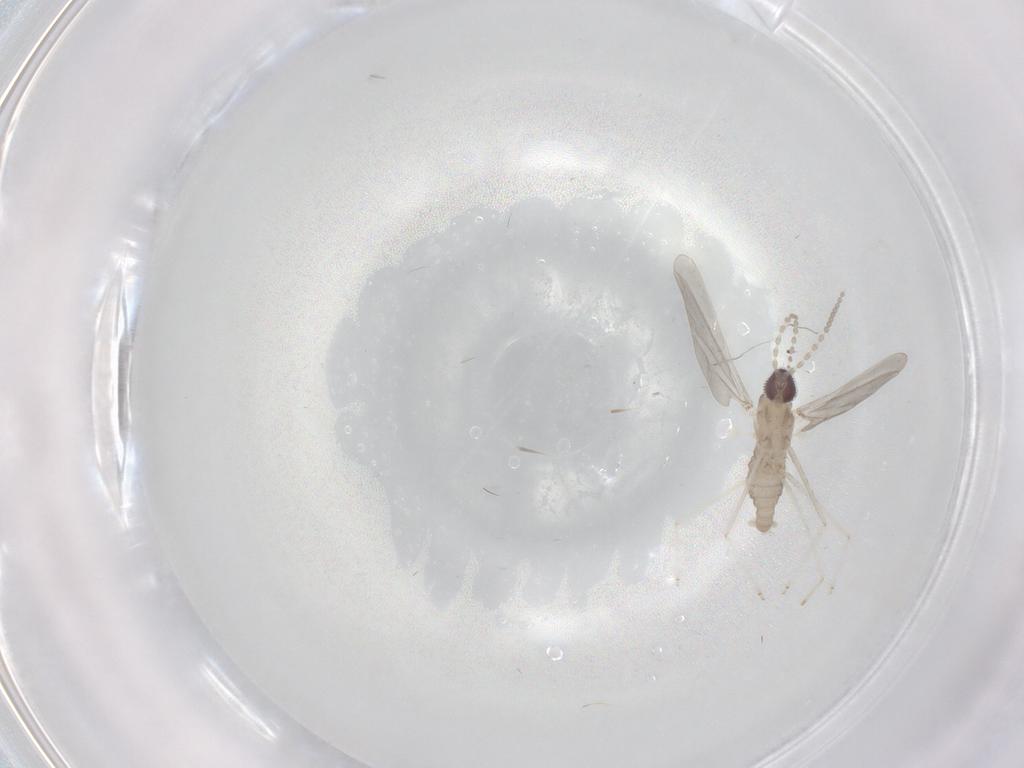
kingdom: Animalia
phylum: Arthropoda
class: Insecta
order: Diptera
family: Cecidomyiidae
